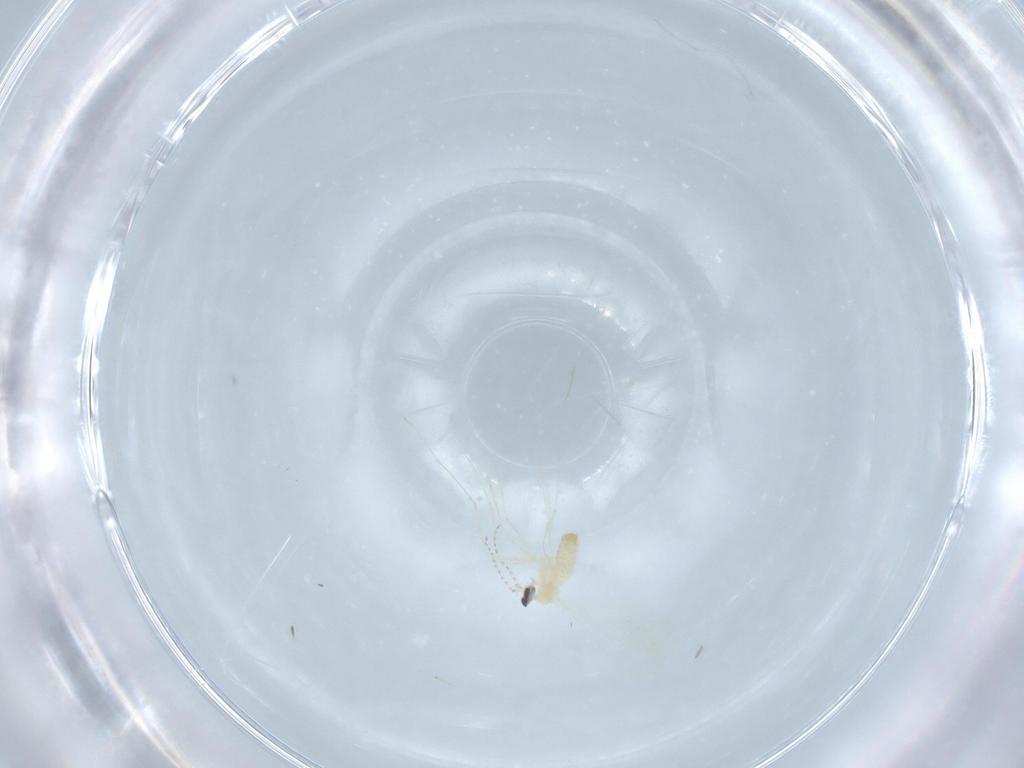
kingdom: Animalia
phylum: Arthropoda
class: Insecta
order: Diptera
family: Cecidomyiidae
